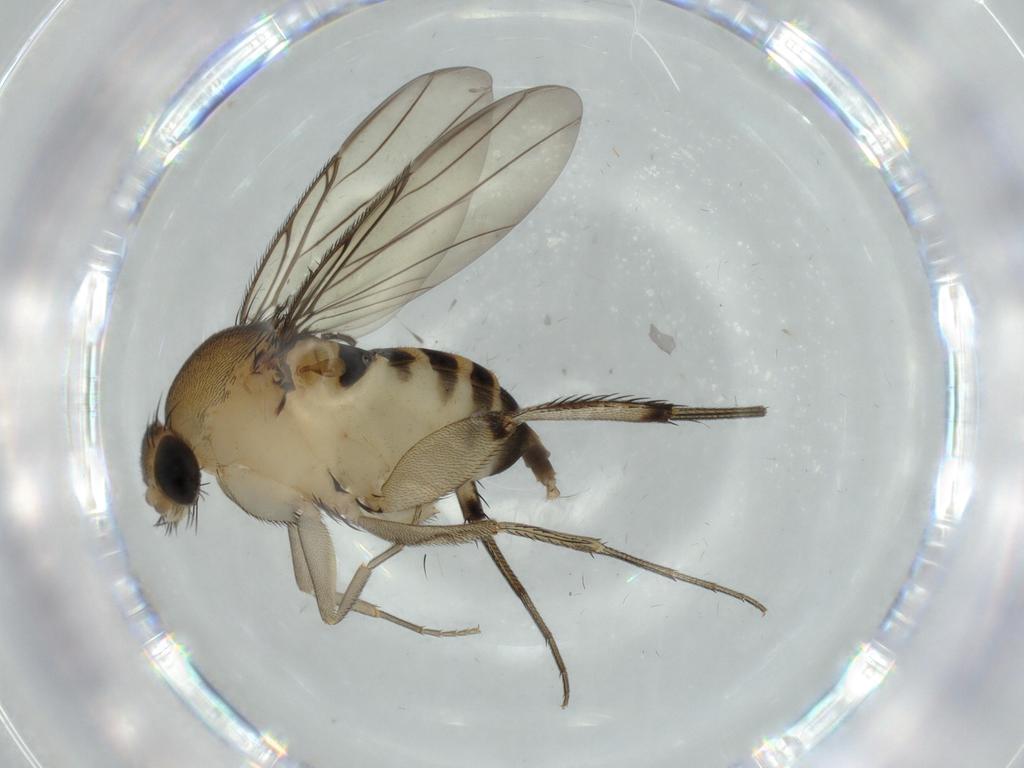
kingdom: Animalia
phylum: Arthropoda
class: Insecta
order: Diptera
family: Phoridae
